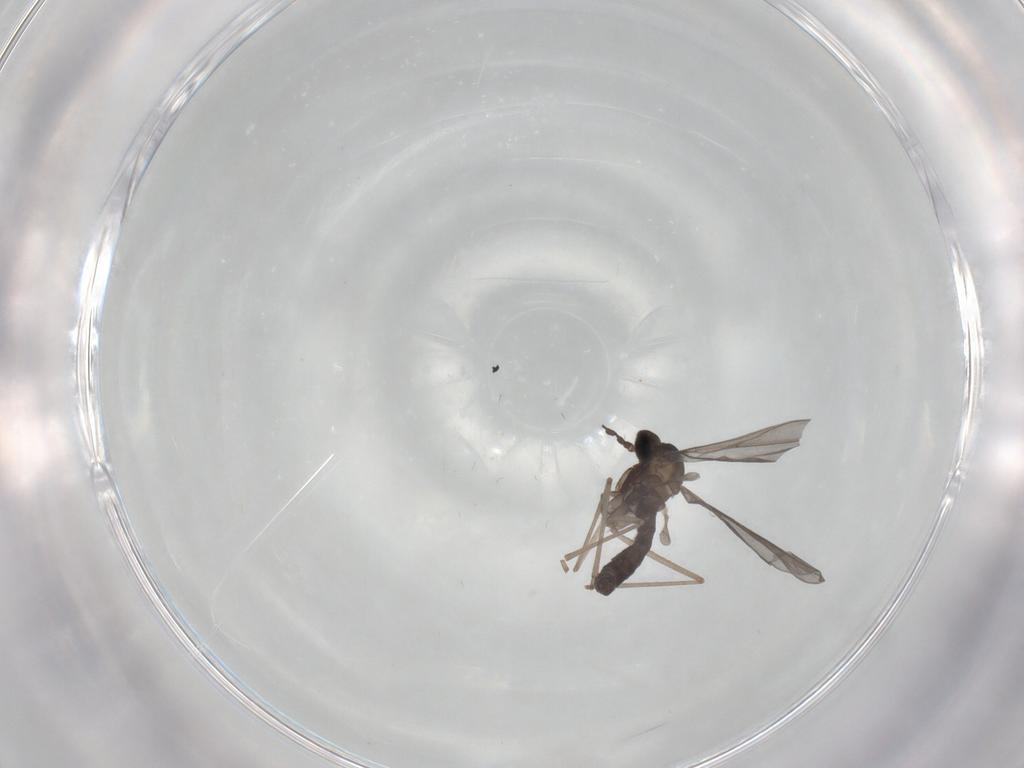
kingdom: Animalia
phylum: Arthropoda
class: Insecta
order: Diptera
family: Cecidomyiidae
